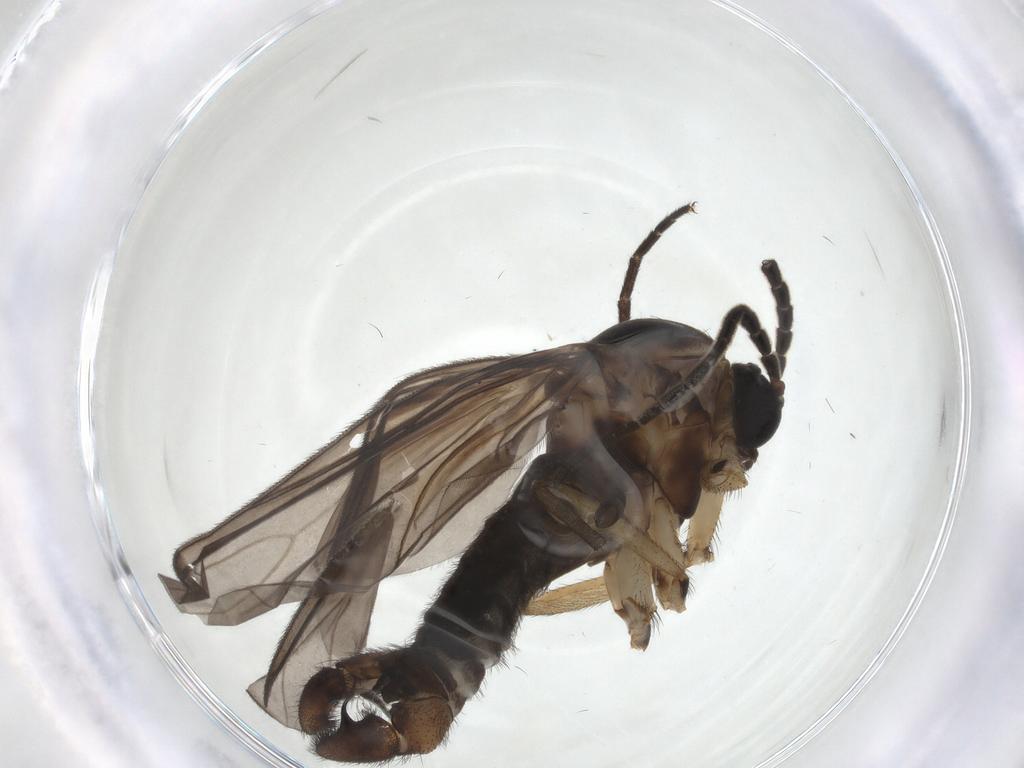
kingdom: Animalia
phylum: Arthropoda
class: Insecta
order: Diptera
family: Cecidomyiidae
